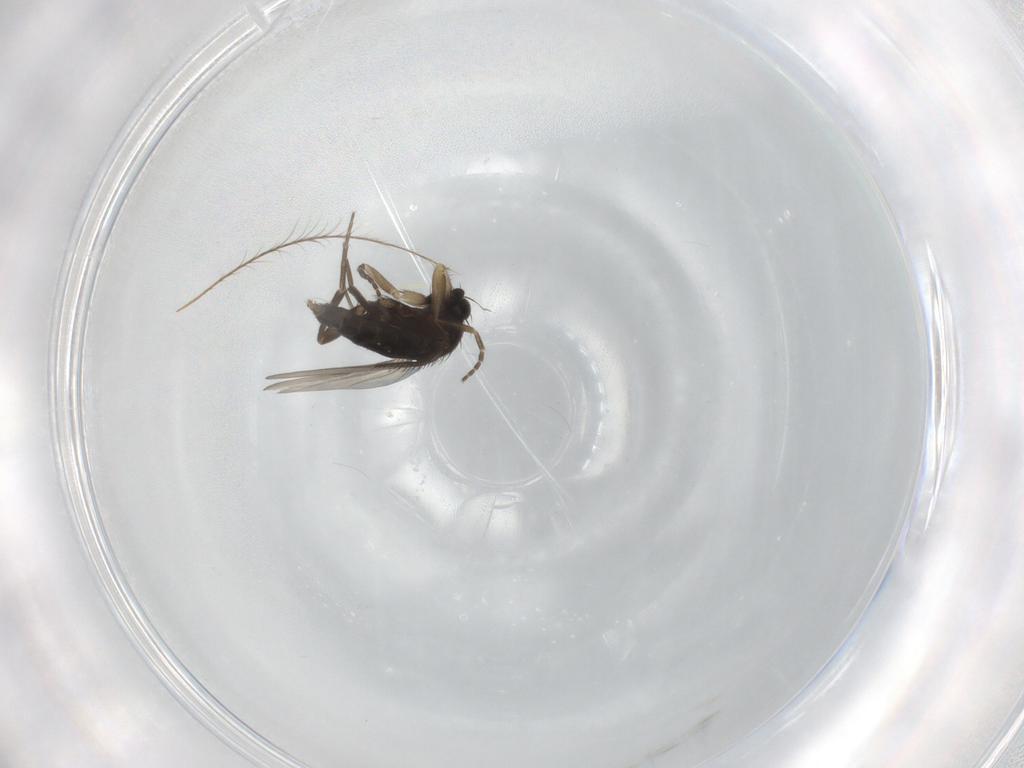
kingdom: Animalia
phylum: Arthropoda
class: Insecta
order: Diptera
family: Phoridae
